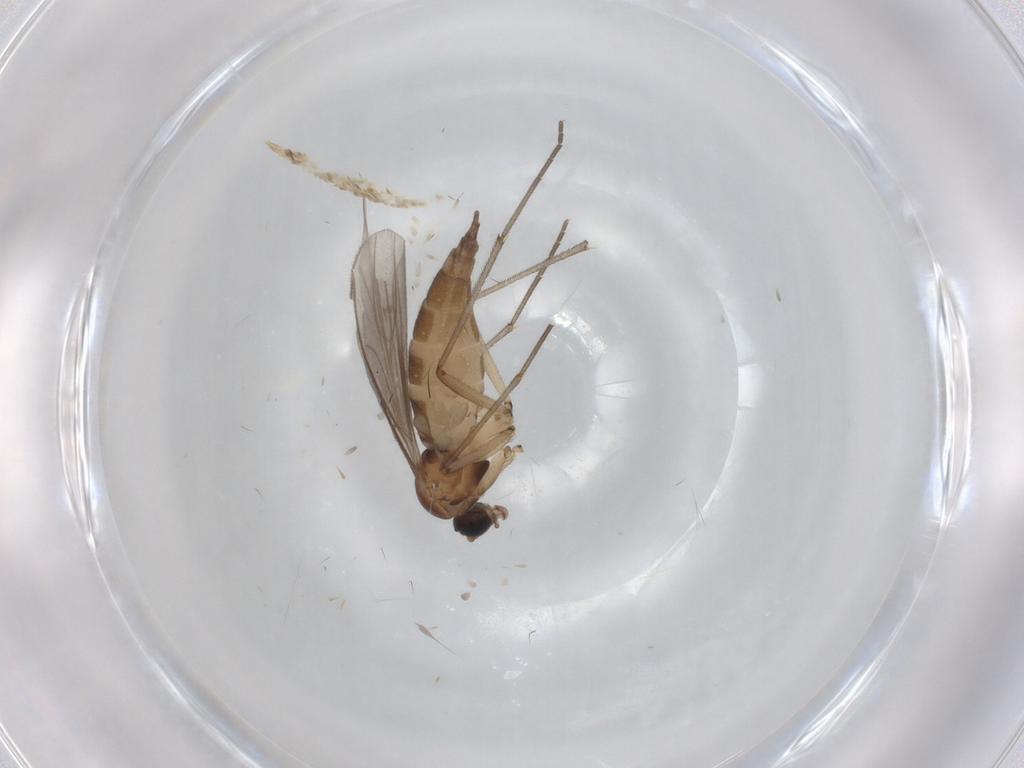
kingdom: Animalia
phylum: Arthropoda
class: Insecta
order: Diptera
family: Sciaridae
